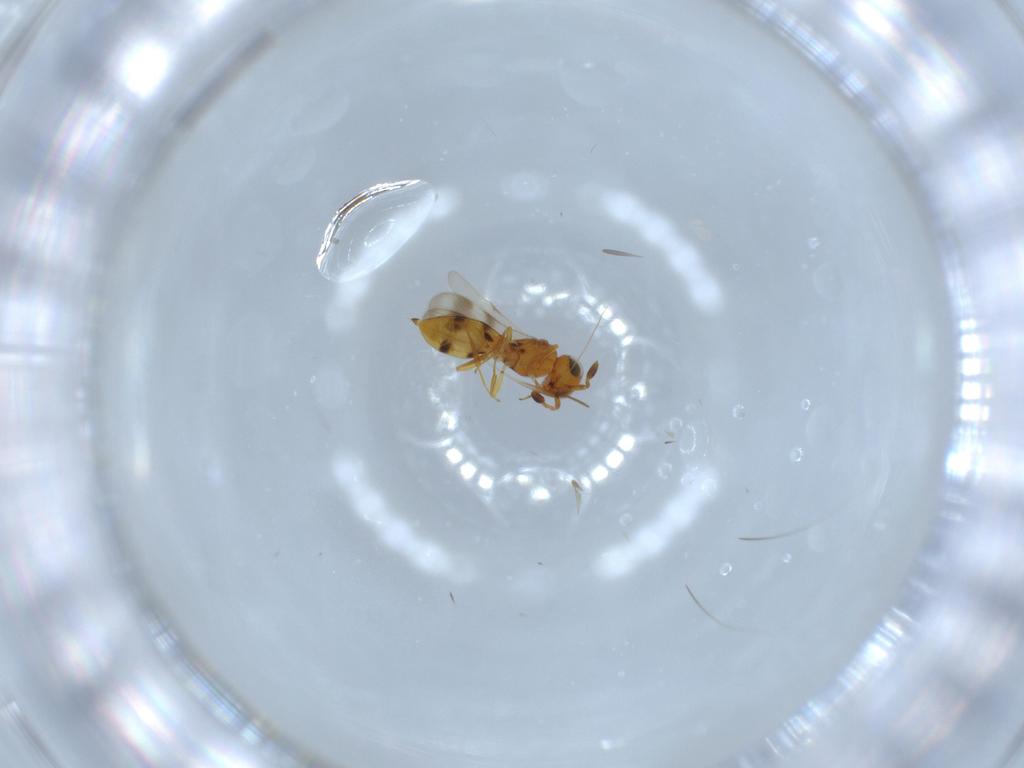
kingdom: Animalia
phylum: Arthropoda
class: Insecta
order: Hymenoptera
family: Scelionidae
